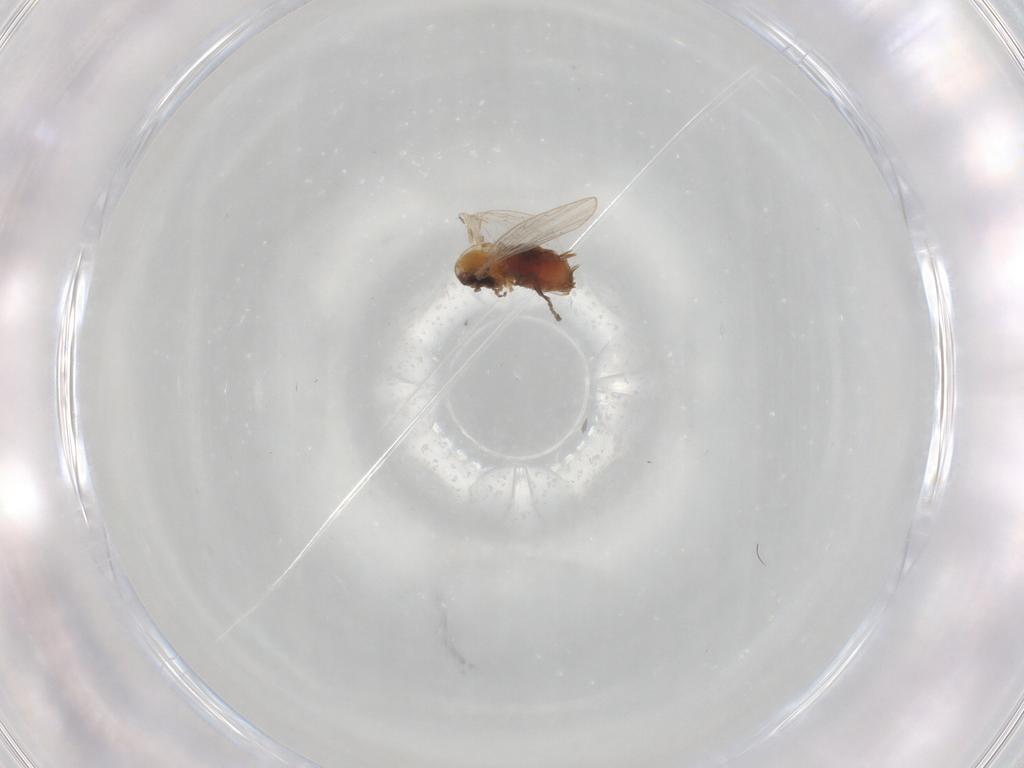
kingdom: Animalia
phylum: Arthropoda
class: Insecta
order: Diptera
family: Psychodidae
